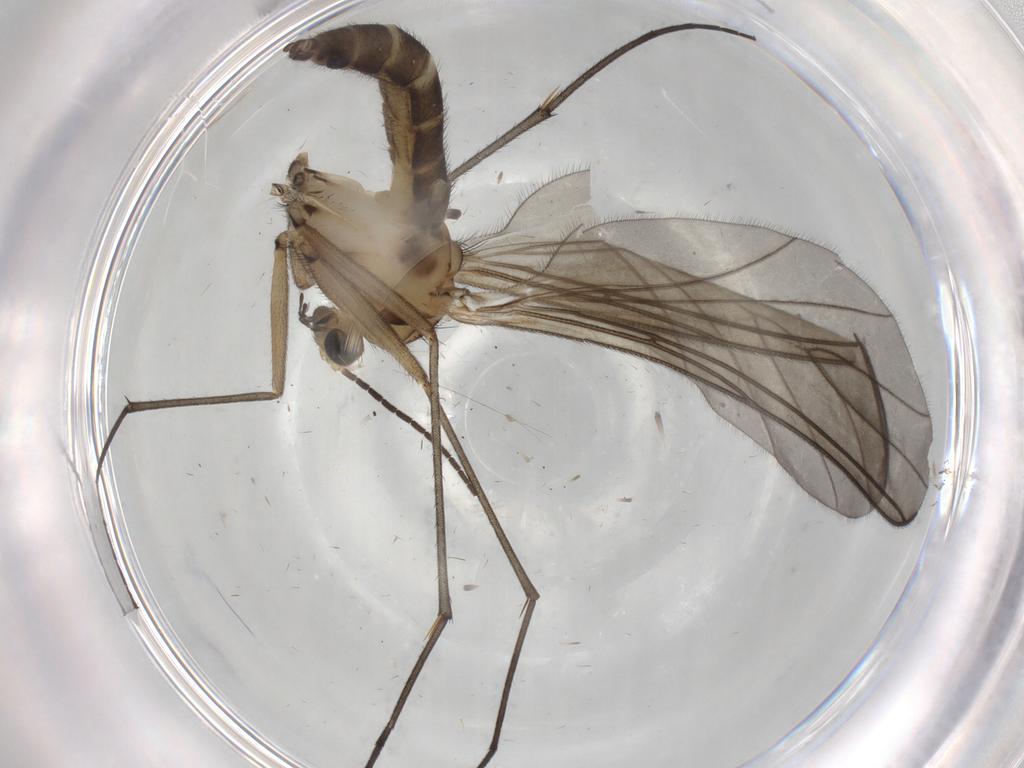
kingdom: Animalia
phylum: Arthropoda
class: Insecta
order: Diptera
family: Sciaridae
